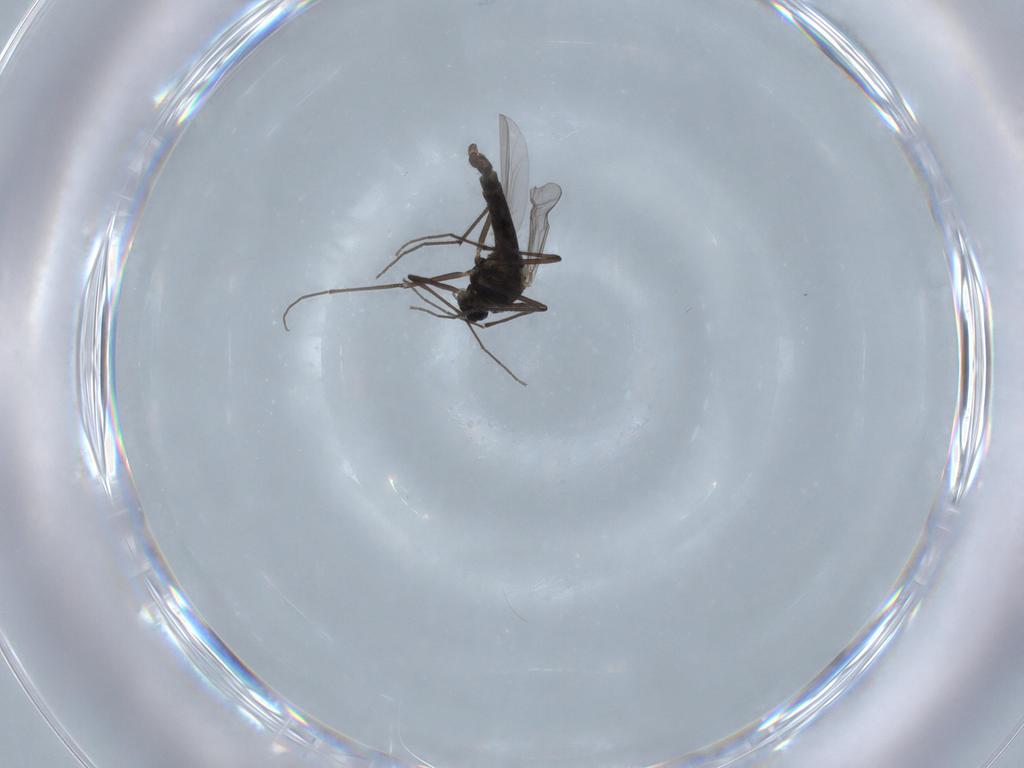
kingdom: Animalia
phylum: Arthropoda
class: Insecta
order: Diptera
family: Chironomidae
